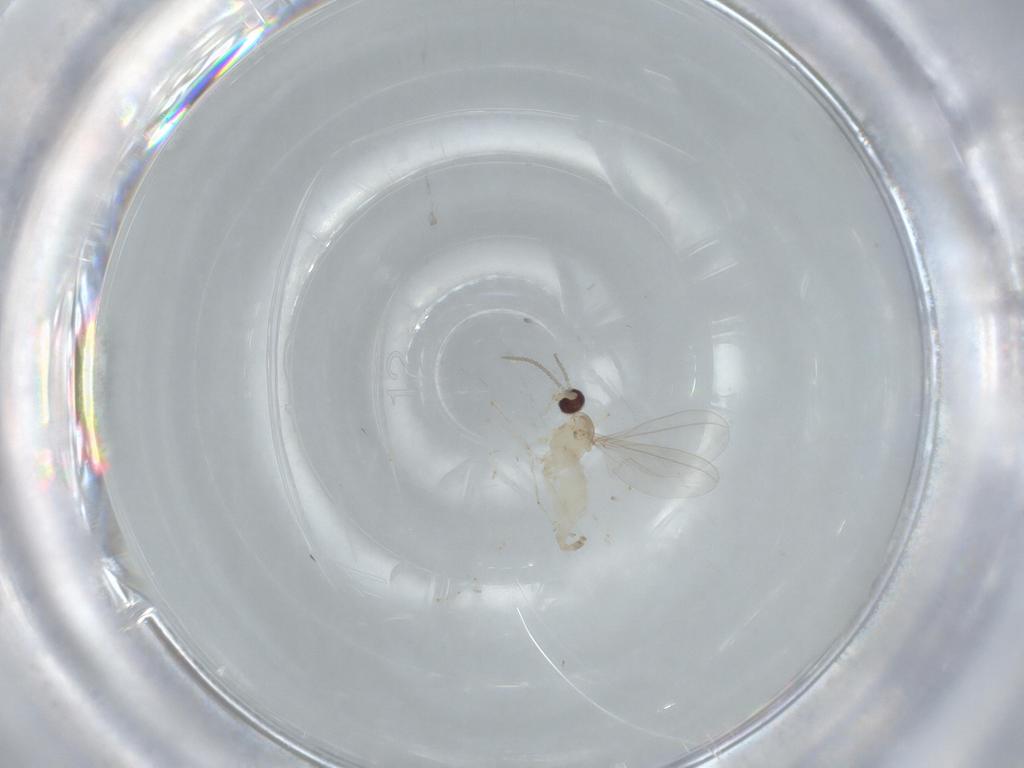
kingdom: Animalia
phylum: Arthropoda
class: Insecta
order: Diptera
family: Cecidomyiidae
